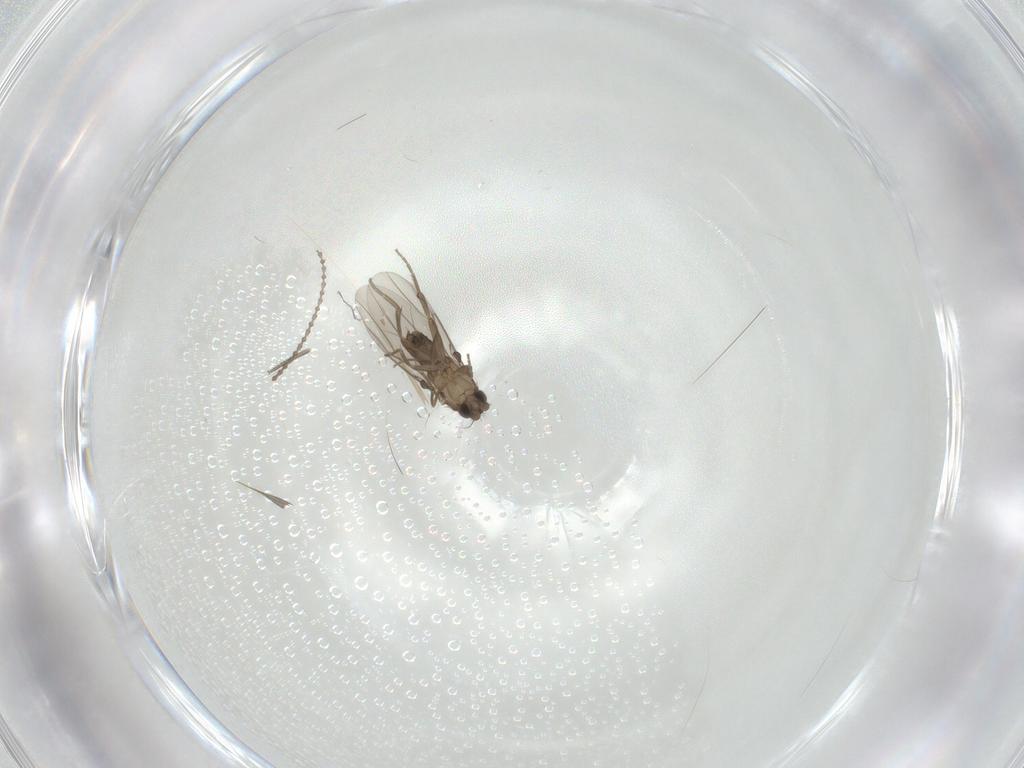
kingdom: Animalia
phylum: Arthropoda
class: Insecta
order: Diptera
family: Cecidomyiidae
